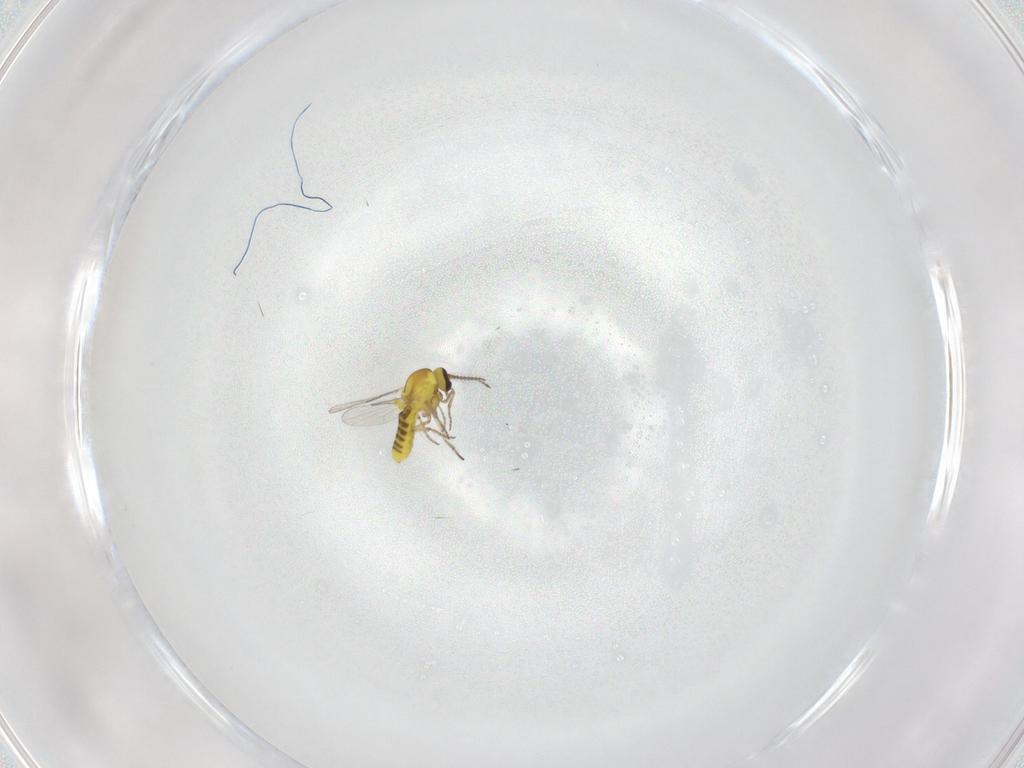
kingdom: Animalia
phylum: Arthropoda
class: Insecta
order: Diptera
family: Ceratopogonidae
